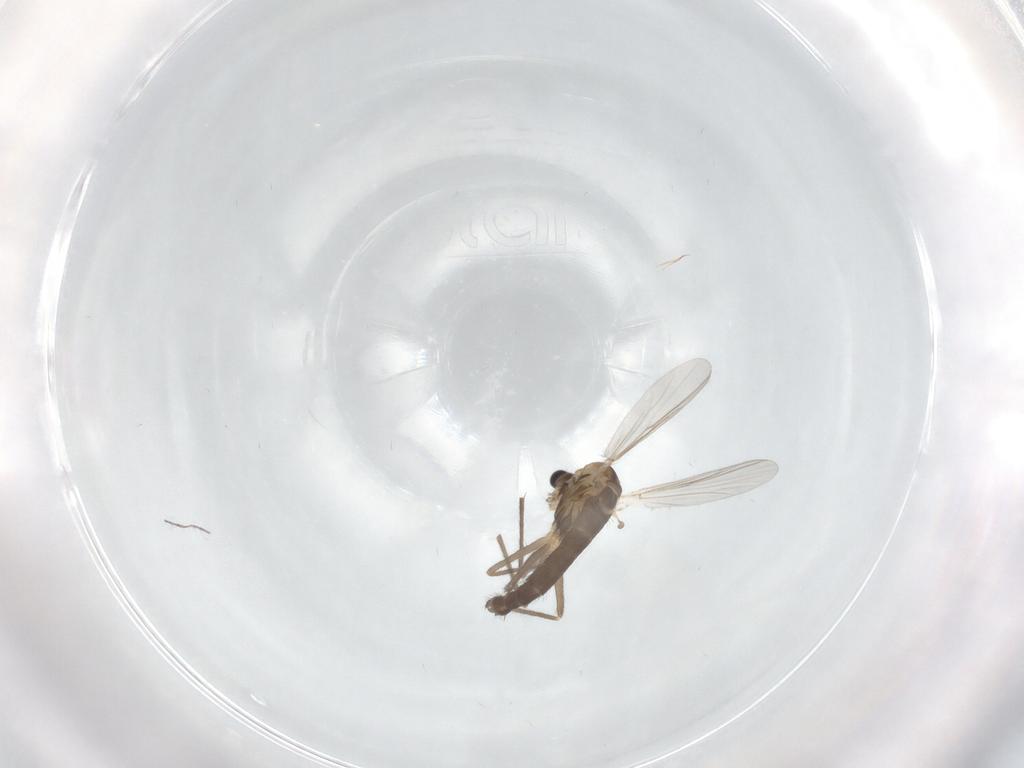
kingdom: Animalia
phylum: Arthropoda
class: Insecta
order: Diptera
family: Chironomidae
